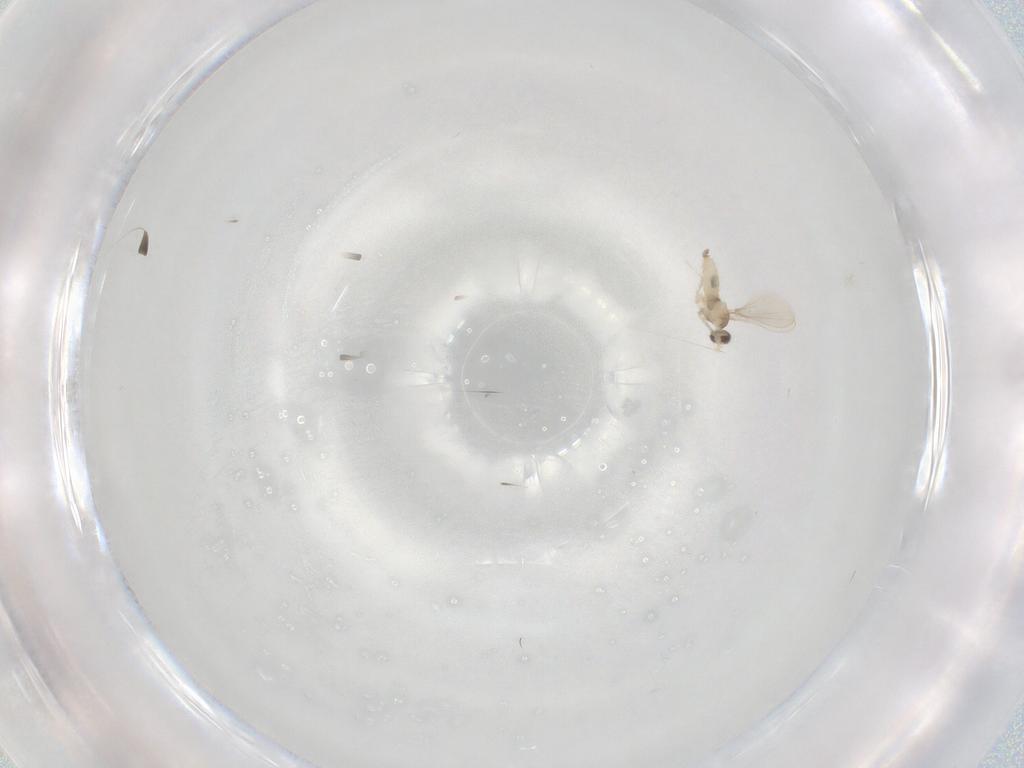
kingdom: Animalia
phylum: Arthropoda
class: Insecta
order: Diptera
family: Cecidomyiidae
